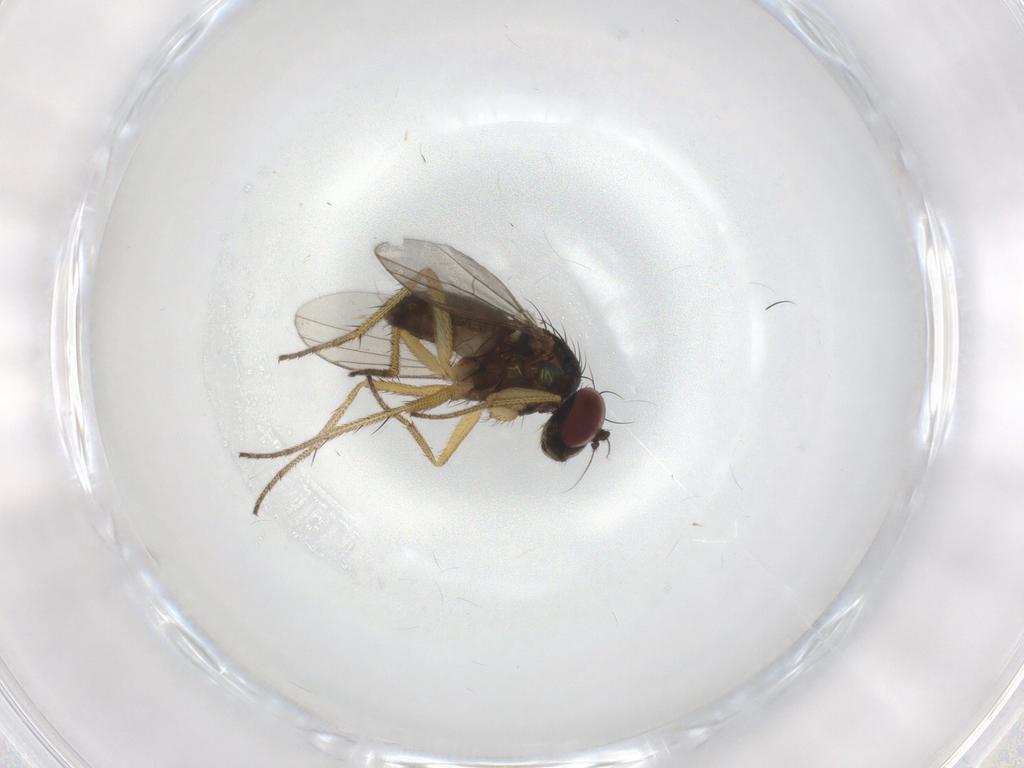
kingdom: Animalia
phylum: Arthropoda
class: Insecta
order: Diptera
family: Dolichopodidae
